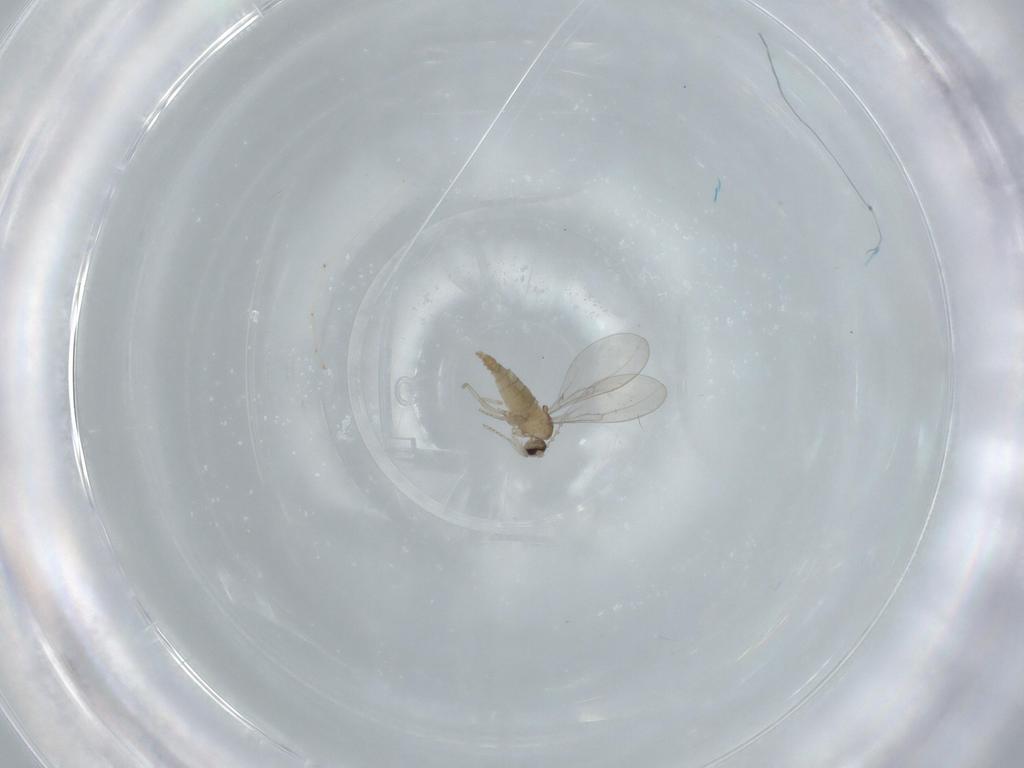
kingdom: Animalia
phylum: Arthropoda
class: Insecta
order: Diptera
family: Cecidomyiidae
